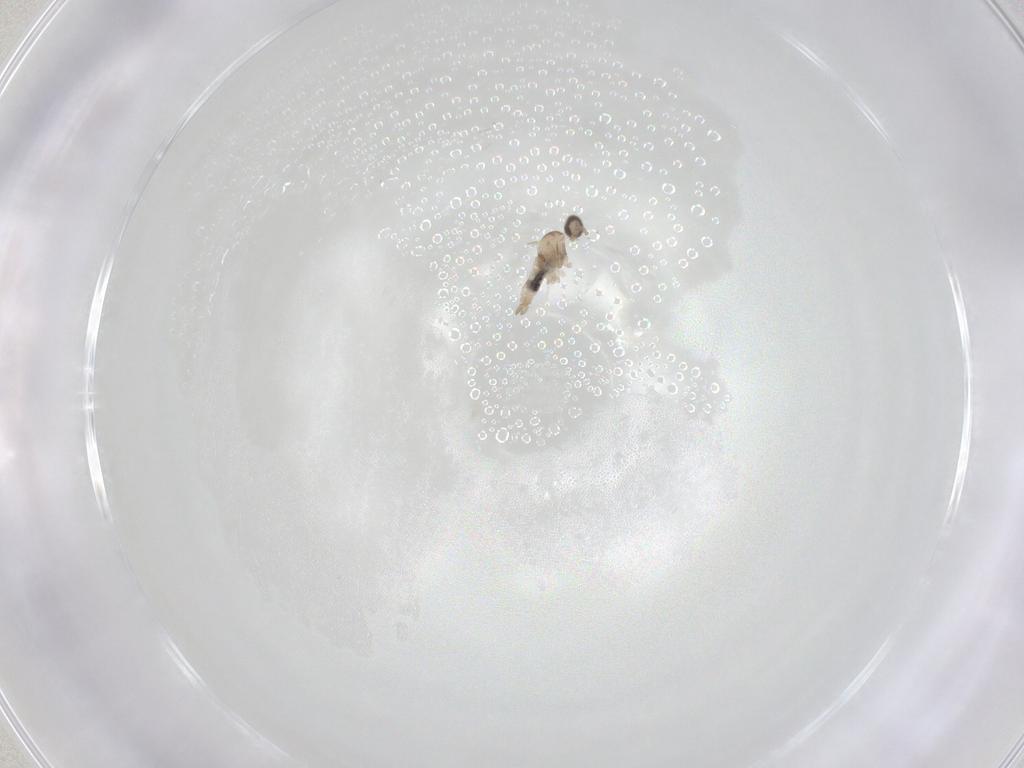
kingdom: Animalia
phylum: Arthropoda
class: Insecta
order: Diptera
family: Cecidomyiidae
